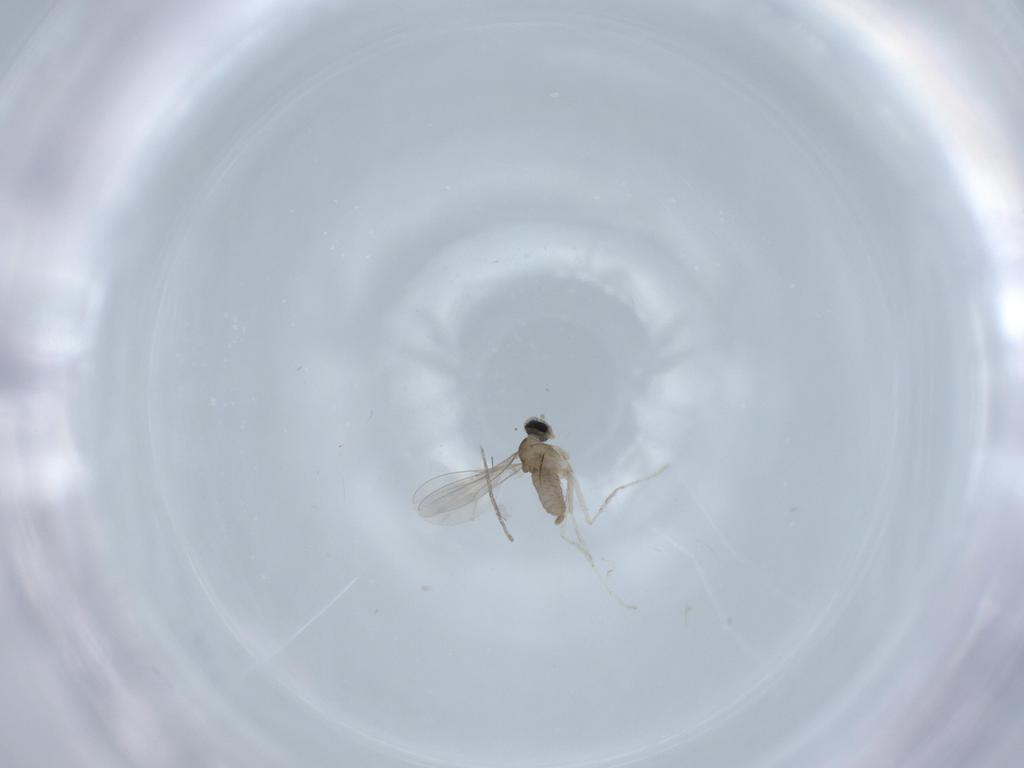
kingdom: Animalia
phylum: Arthropoda
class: Insecta
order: Diptera
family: Cecidomyiidae
